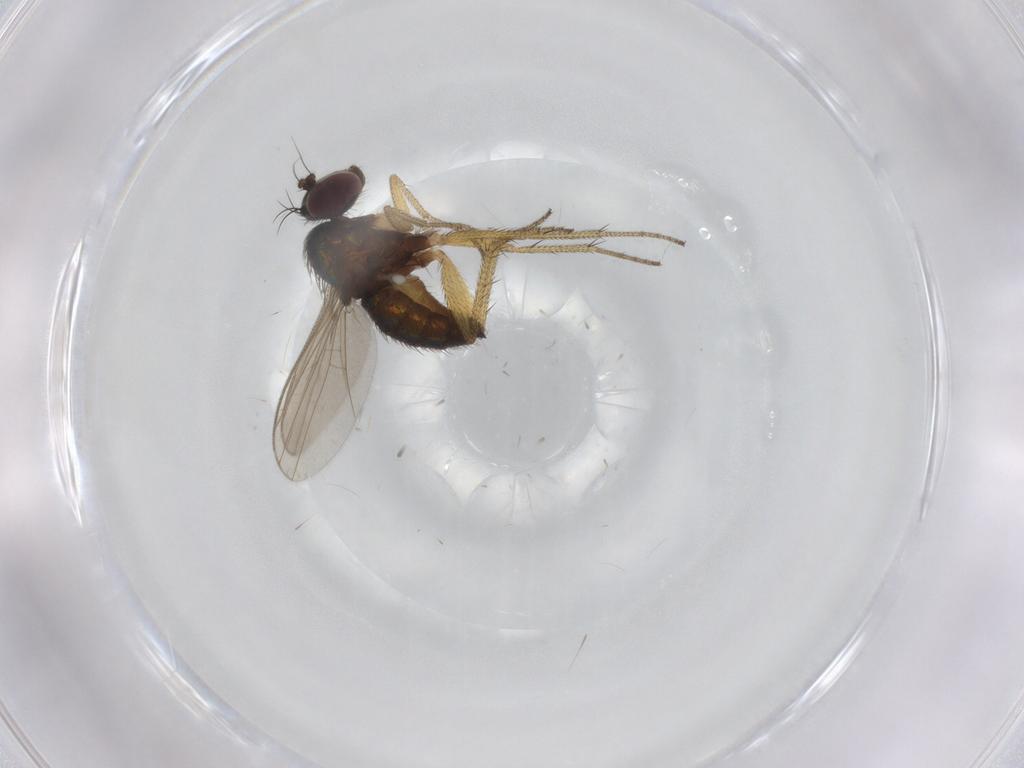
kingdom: Animalia
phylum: Arthropoda
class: Insecta
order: Diptera
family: Dolichopodidae
